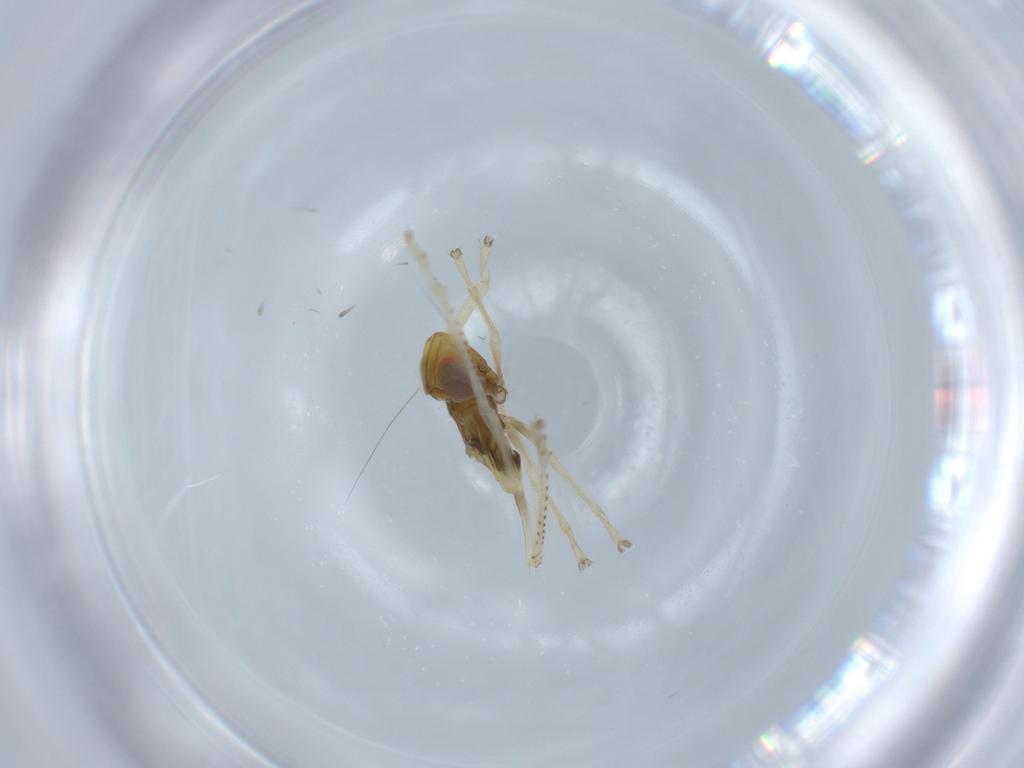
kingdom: Animalia
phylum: Arthropoda
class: Insecta
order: Hemiptera
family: Cicadellidae
